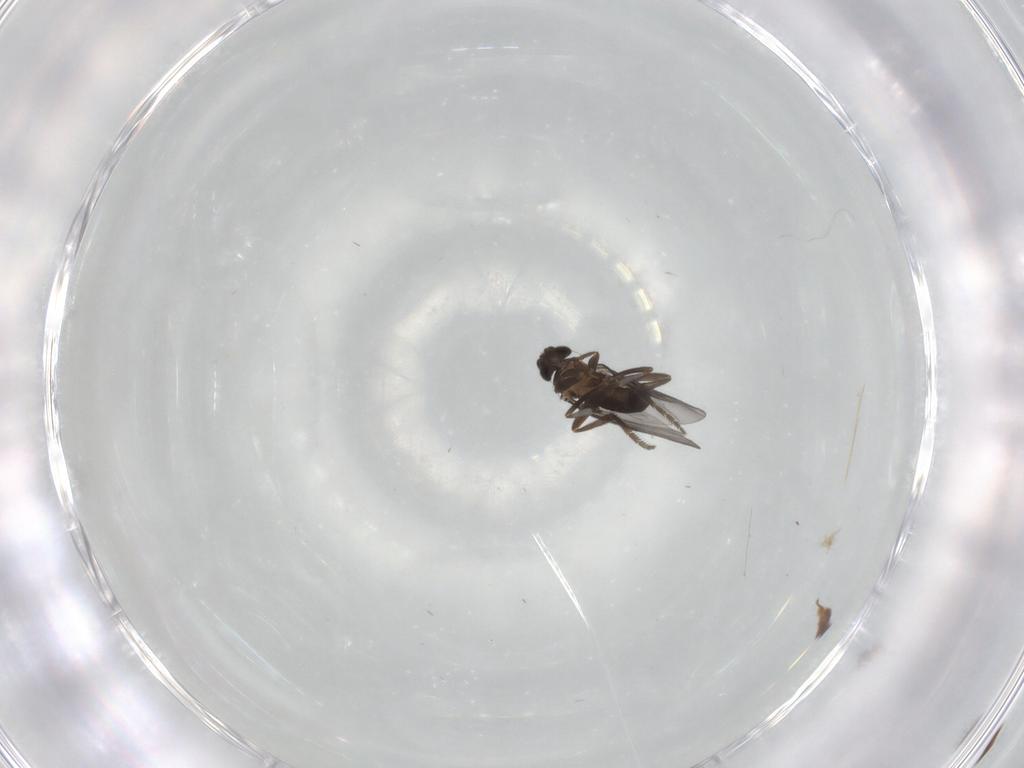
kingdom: Animalia
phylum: Arthropoda
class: Insecta
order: Diptera
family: Phoridae
